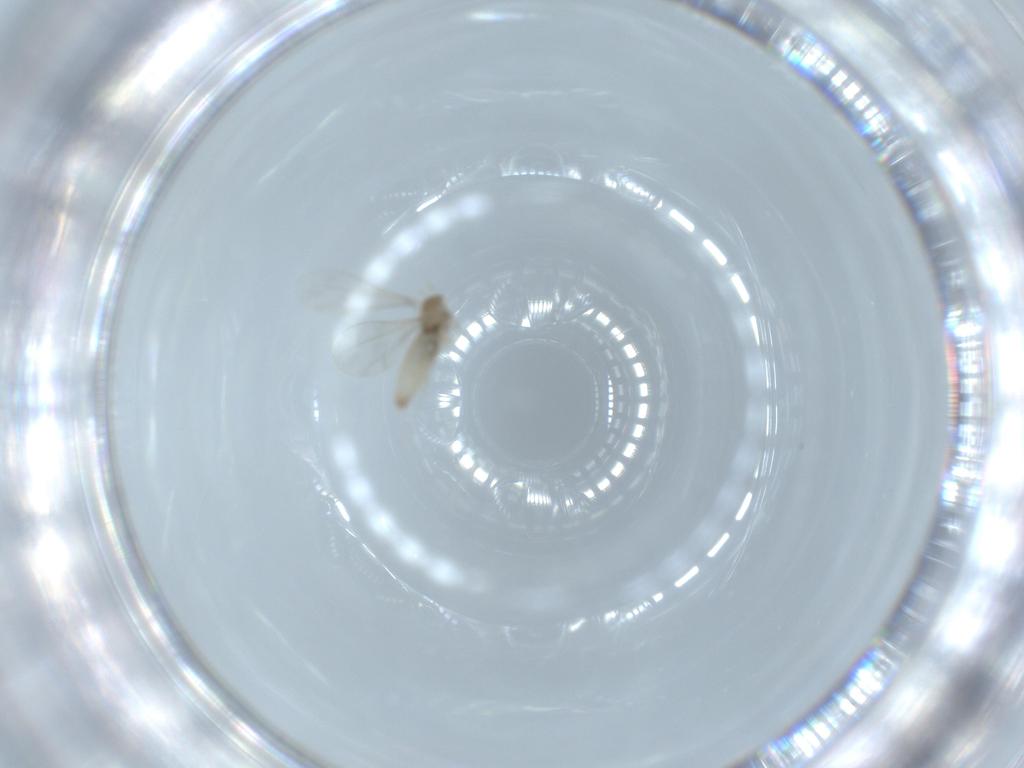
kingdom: Animalia
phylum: Arthropoda
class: Insecta
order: Diptera
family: Cecidomyiidae
